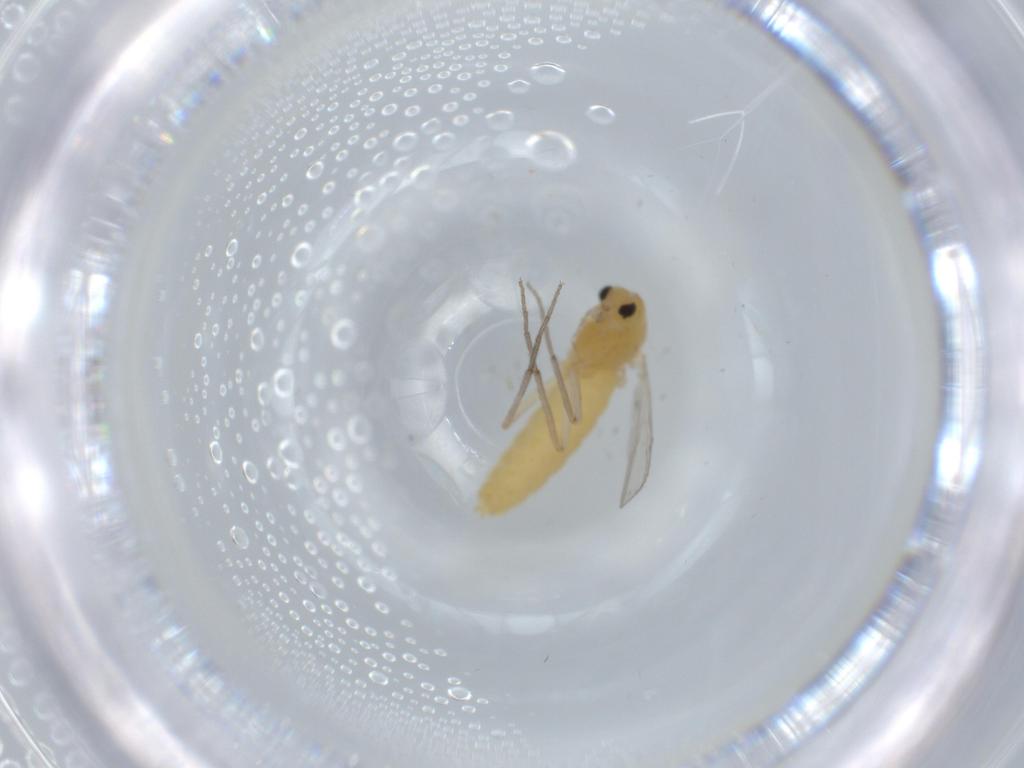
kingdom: Animalia
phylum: Arthropoda
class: Insecta
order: Diptera
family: Chironomidae
